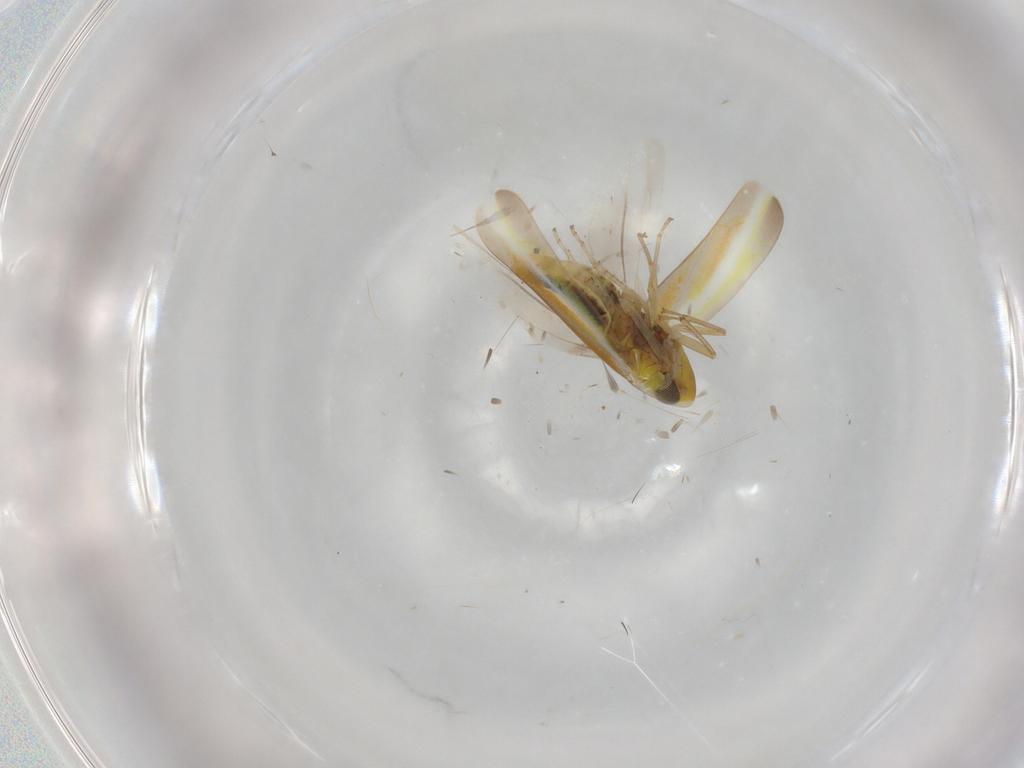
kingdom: Animalia
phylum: Arthropoda
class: Insecta
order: Hemiptera
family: Cicadellidae
